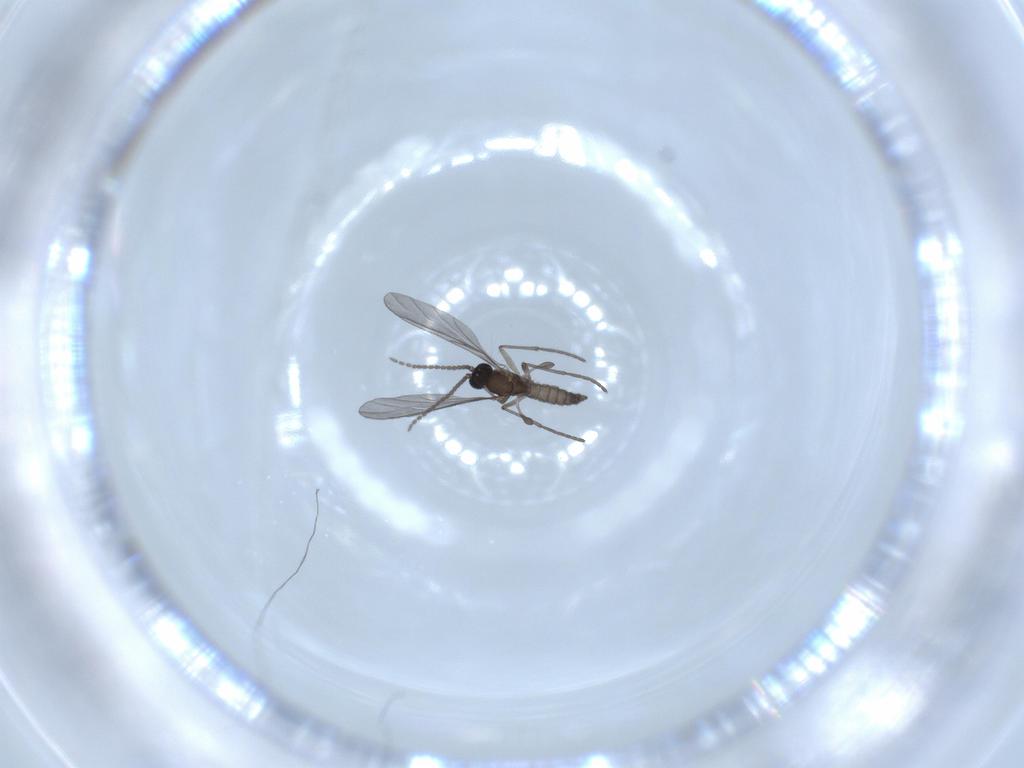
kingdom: Animalia
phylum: Arthropoda
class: Insecta
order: Diptera
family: Sciaridae
